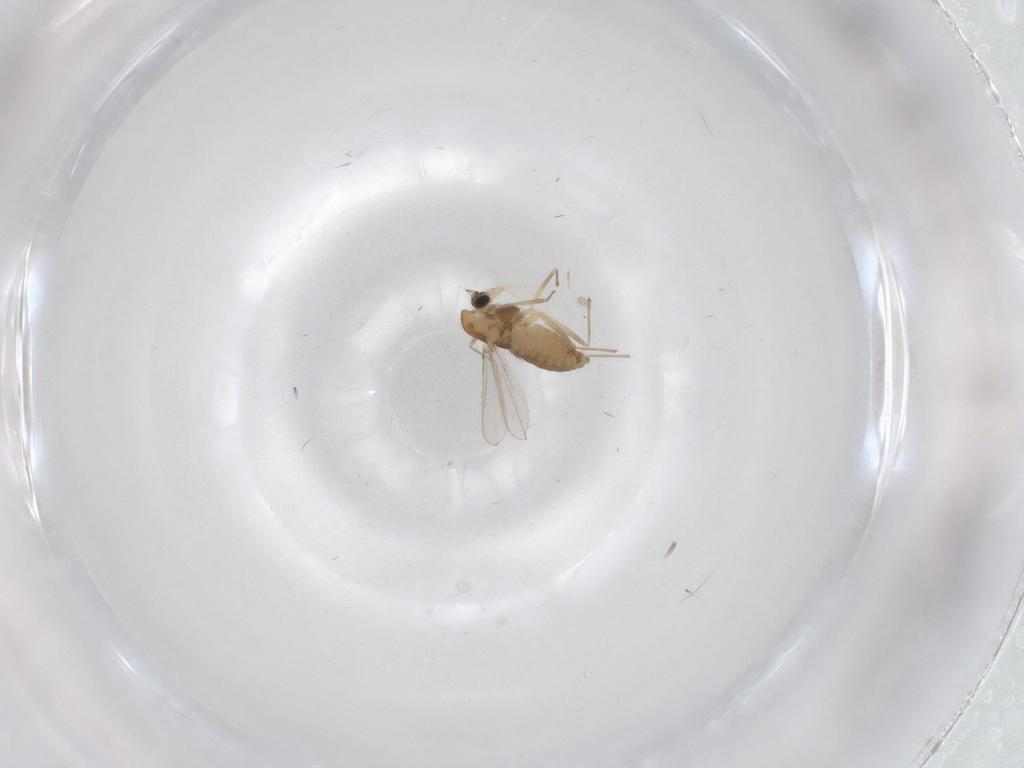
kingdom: Animalia
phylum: Arthropoda
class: Insecta
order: Diptera
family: Chironomidae
